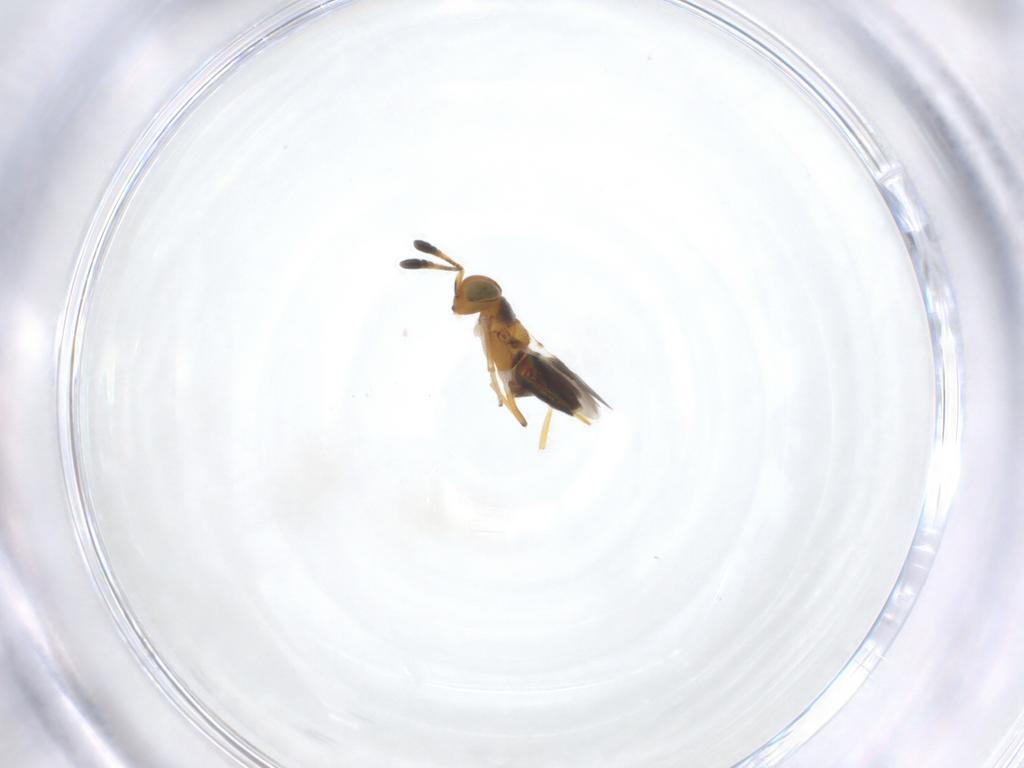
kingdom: Animalia
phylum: Arthropoda
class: Insecta
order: Hymenoptera
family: Encyrtidae
